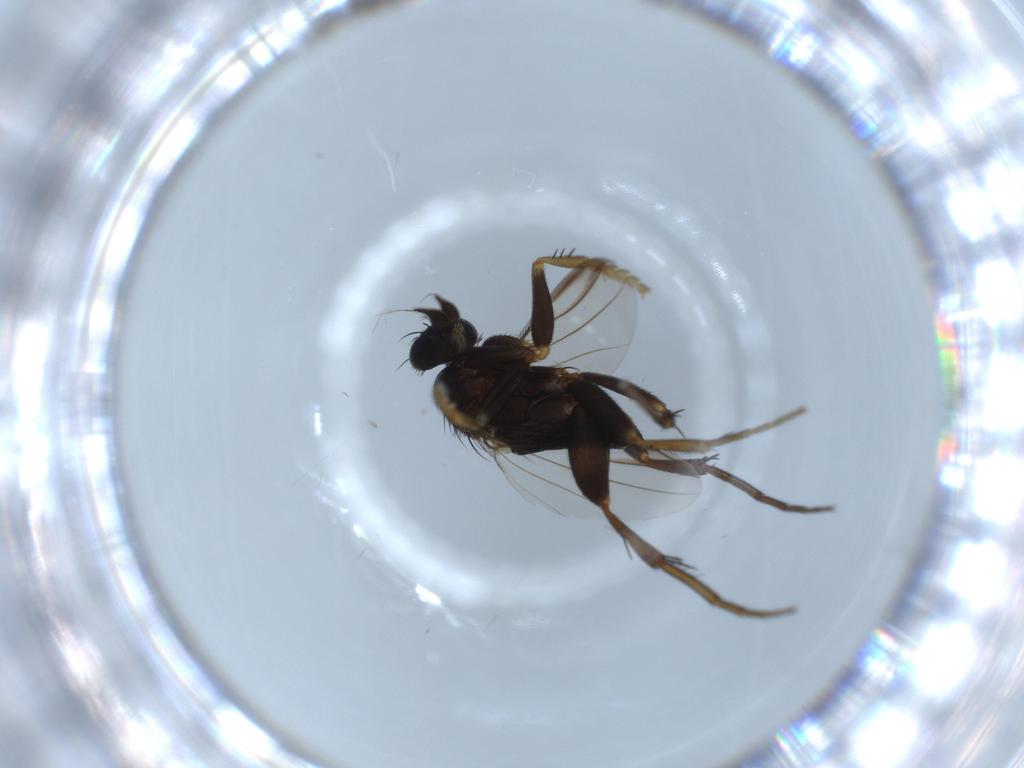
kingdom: Animalia
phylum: Arthropoda
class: Insecta
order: Diptera
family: Phoridae
